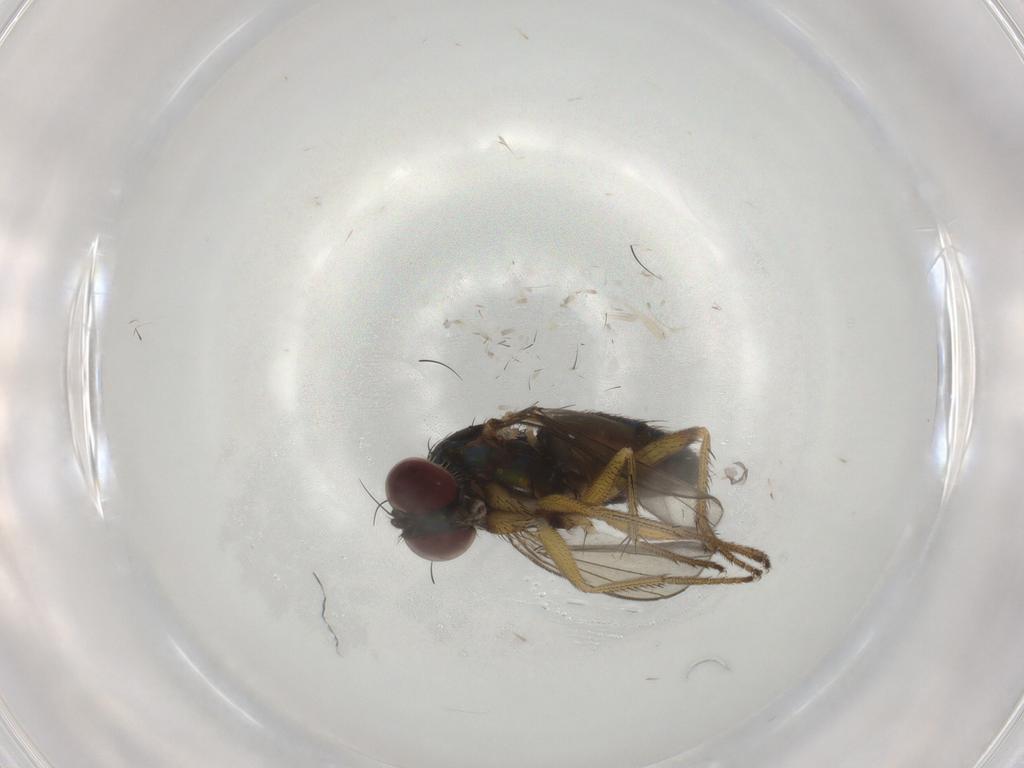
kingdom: Animalia
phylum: Arthropoda
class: Insecta
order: Diptera
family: Dolichopodidae
